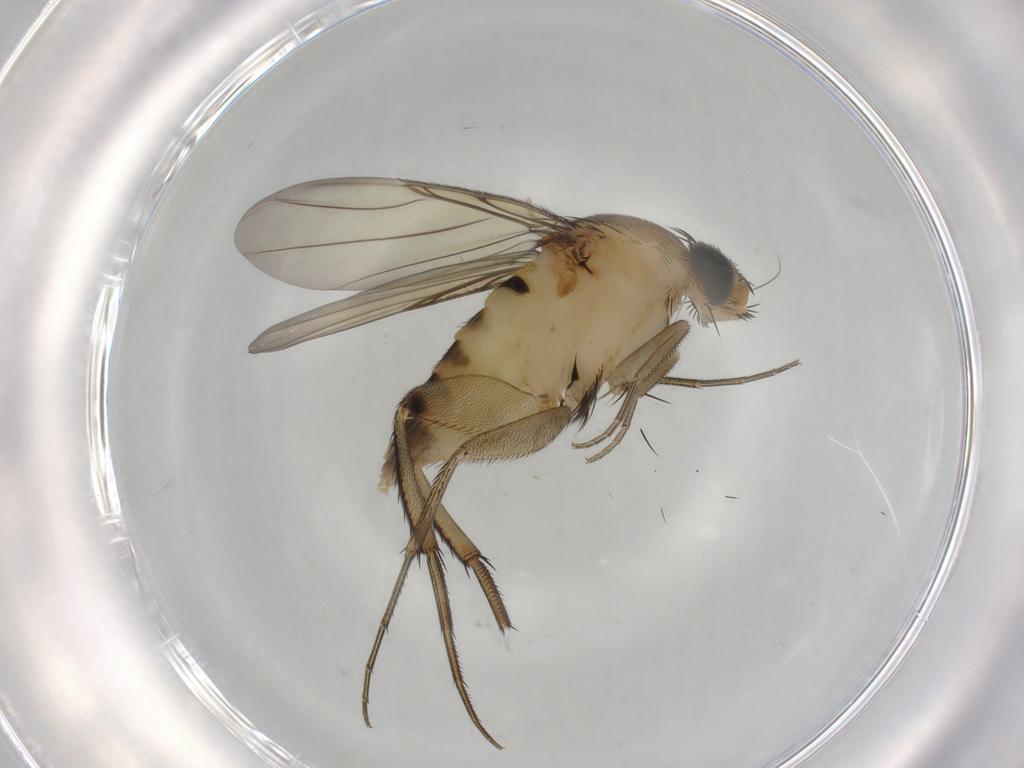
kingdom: Animalia
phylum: Arthropoda
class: Insecta
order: Diptera
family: Phoridae
